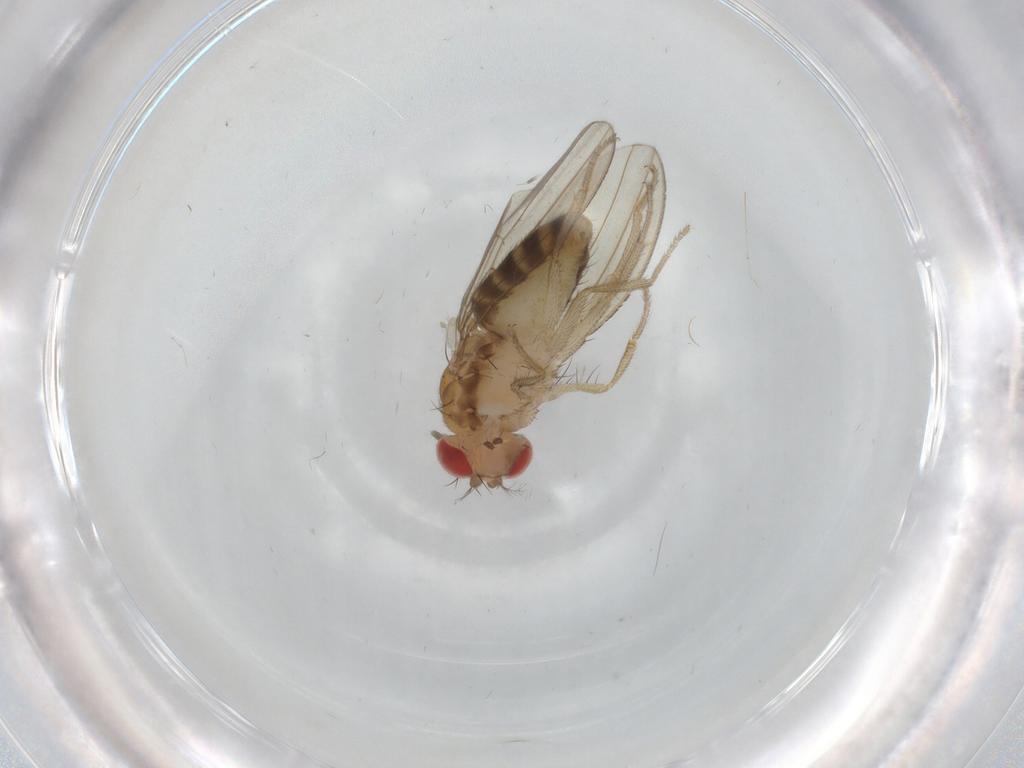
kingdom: Animalia
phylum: Arthropoda
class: Insecta
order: Diptera
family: Drosophilidae
